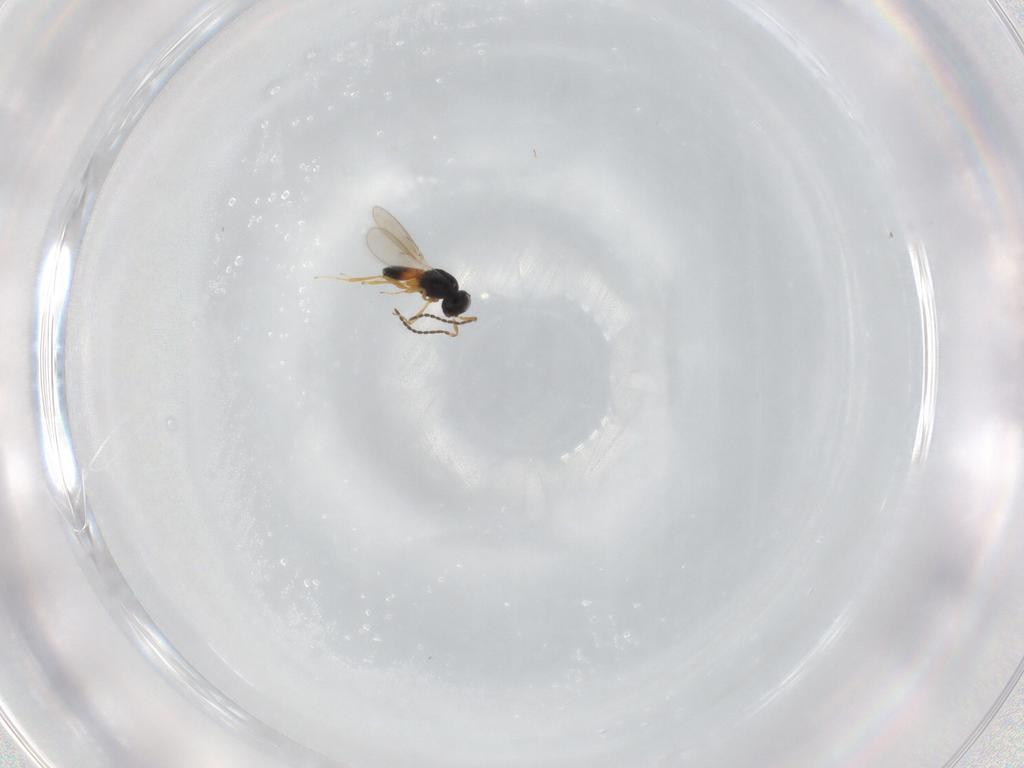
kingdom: Animalia
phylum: Arthropoda
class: Insecta
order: Hymenoptera
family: Scelionidae
